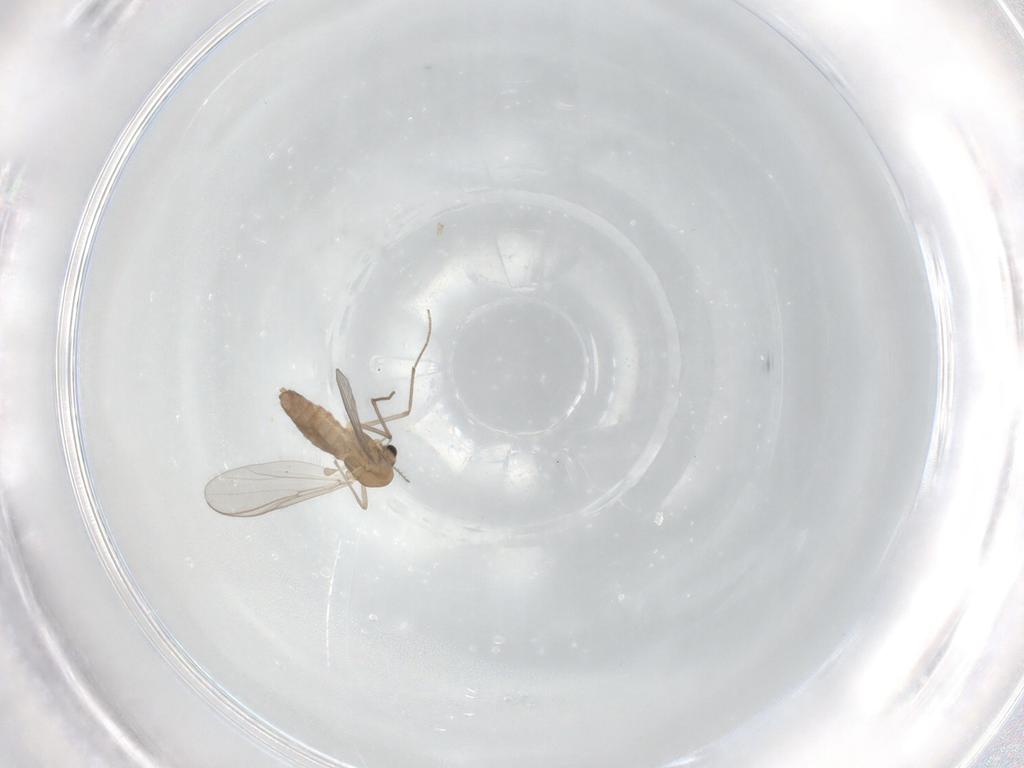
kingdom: Animalia
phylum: Arthropoda
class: Insecta
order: Diptera
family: Chironomidae
